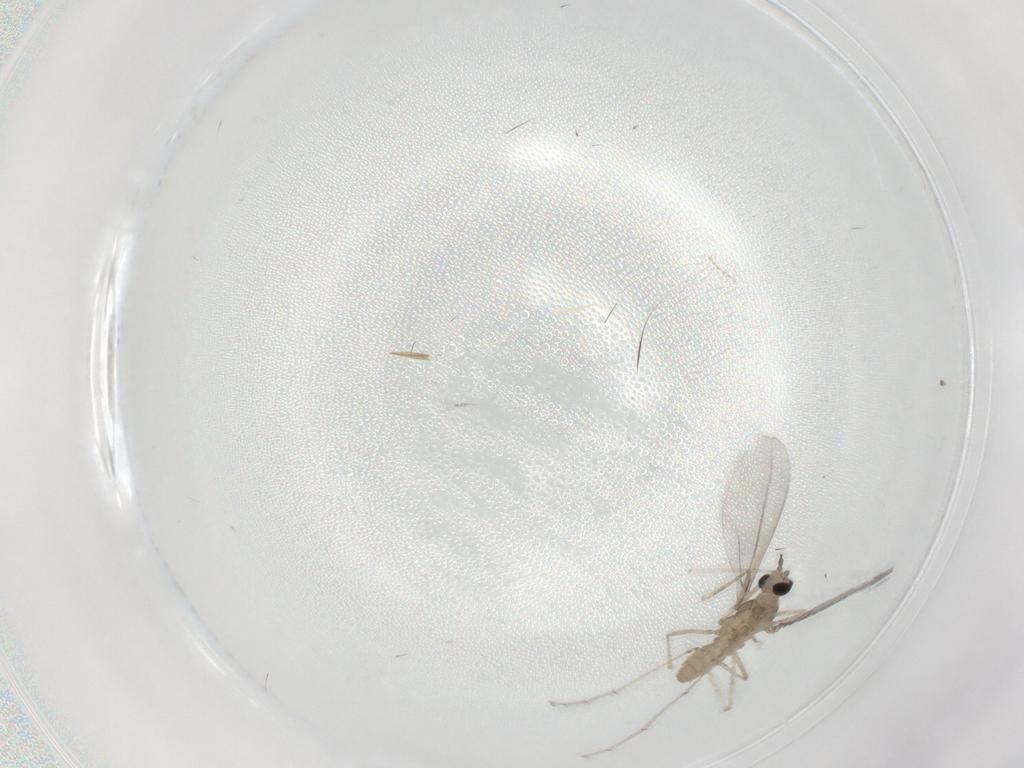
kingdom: Animalia
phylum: Arthropoda
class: Insecta
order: Diptera
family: Cecidomyiidae
